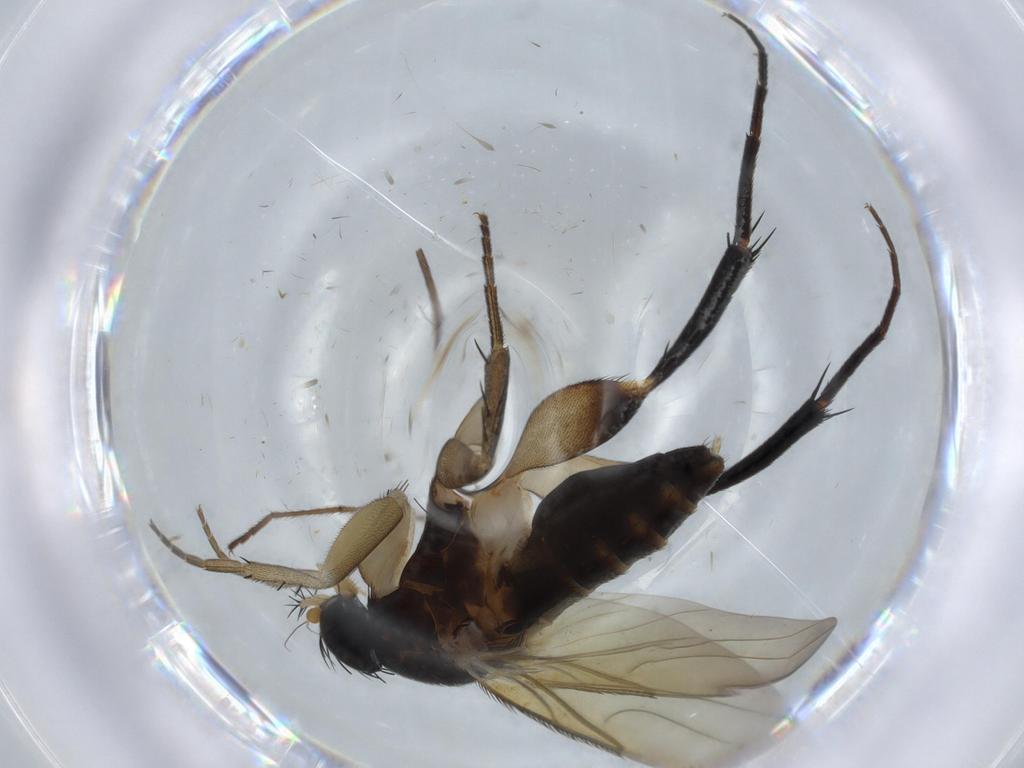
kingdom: Animalia
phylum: Arthropoda
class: Insecta
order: Diptera
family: Phoridae
